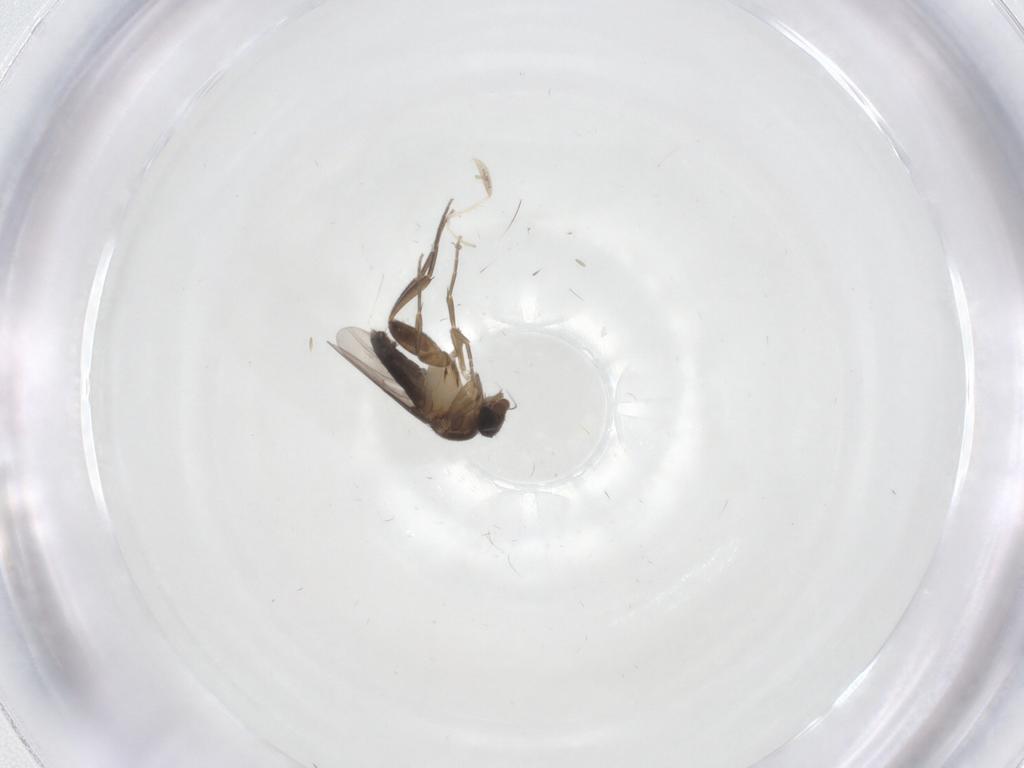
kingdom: Animalia
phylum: Arthropoda
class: Insecta
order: Diptera
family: Phoridae
